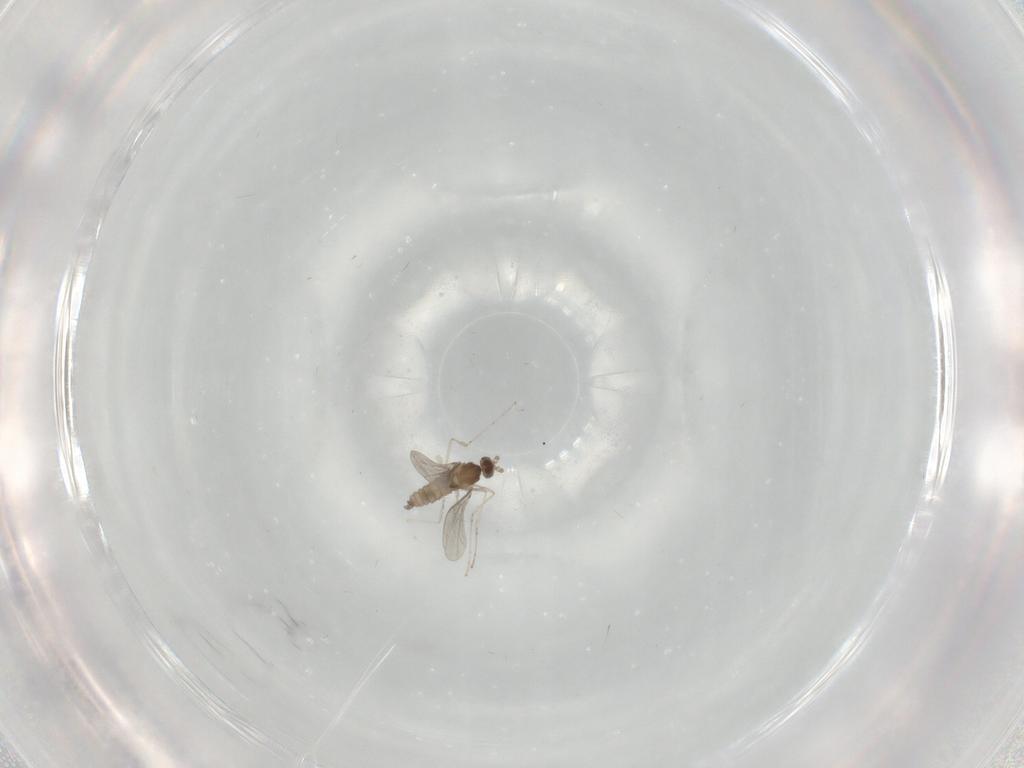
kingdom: Animalia
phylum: Arthropoda
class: Insecta
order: Diptera
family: Cecidomyiidae
